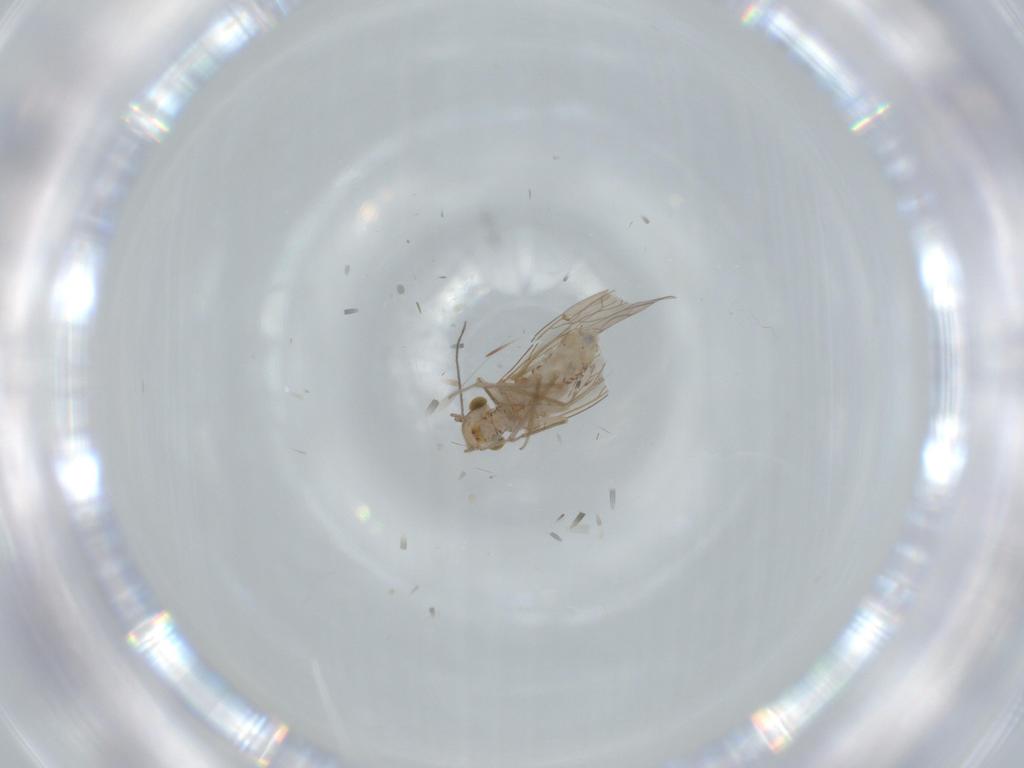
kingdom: Animalia
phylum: Arthropoda
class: Insecta
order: Psocodea
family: Lachesillidae
